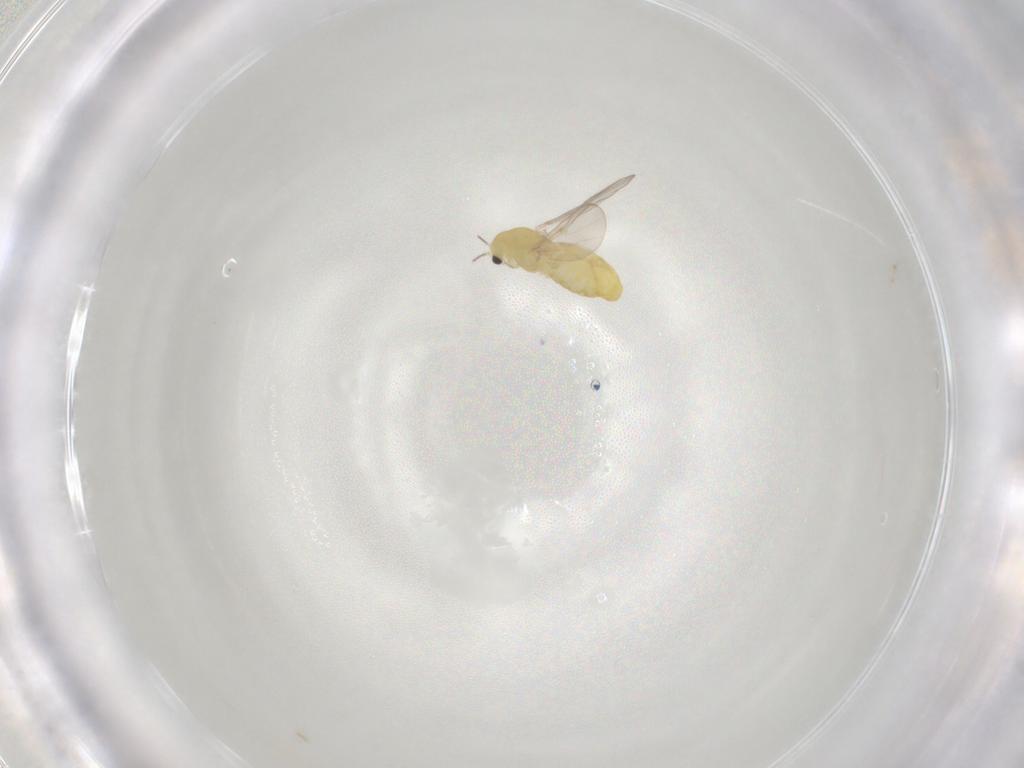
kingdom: Animalia
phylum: Arthropoda
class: Insecta
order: Diptera
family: Chironomidae
